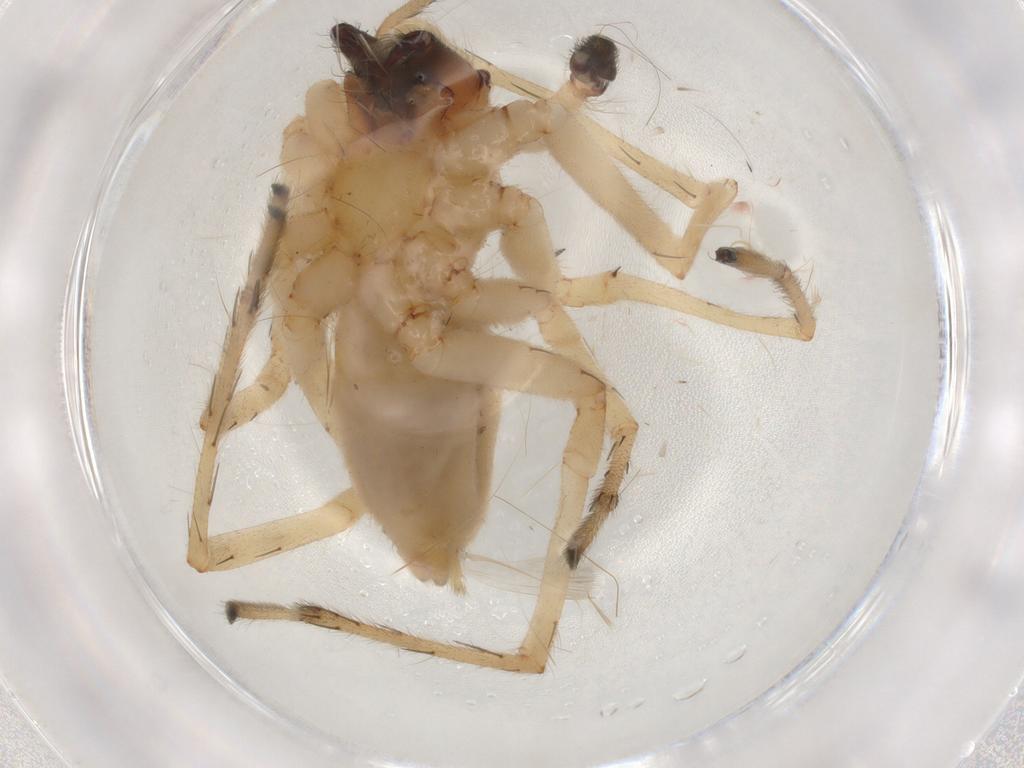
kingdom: Animalia
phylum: Arthropoda
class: Arachnida
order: Araneae
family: Cheiracanthiidae
